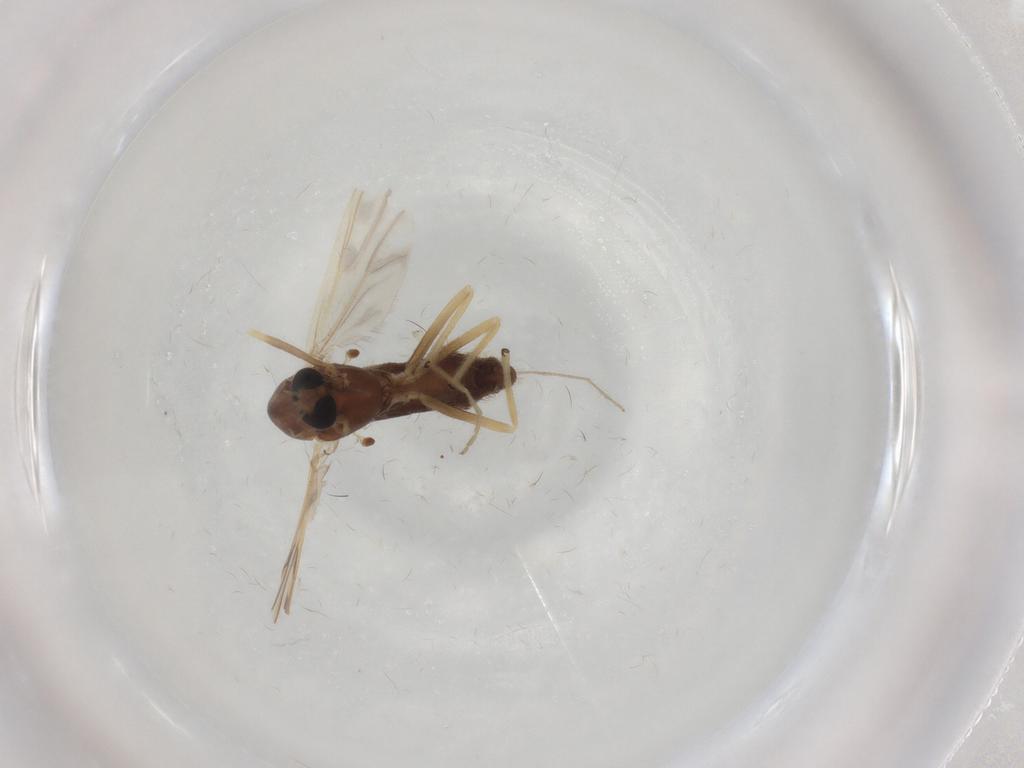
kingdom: Animalia
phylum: Arthropoda
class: Insecta
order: Diptera
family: Chironomidae
